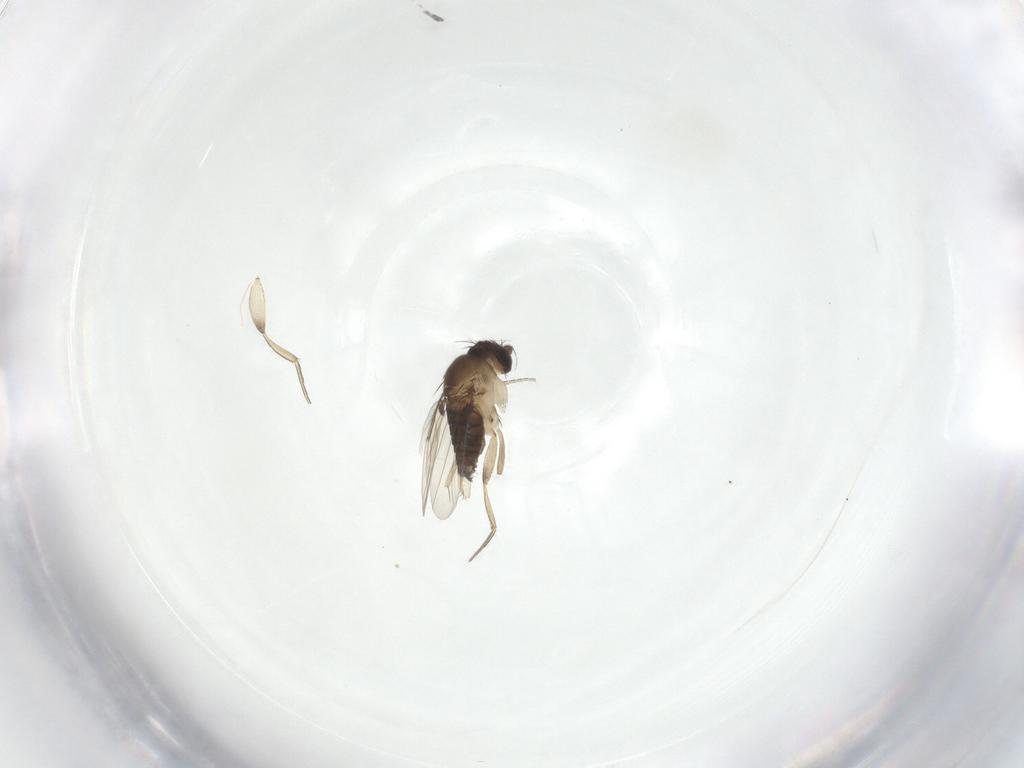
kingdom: Animalia
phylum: Arthropoda
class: Insecta
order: Diptera
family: Phoridae
